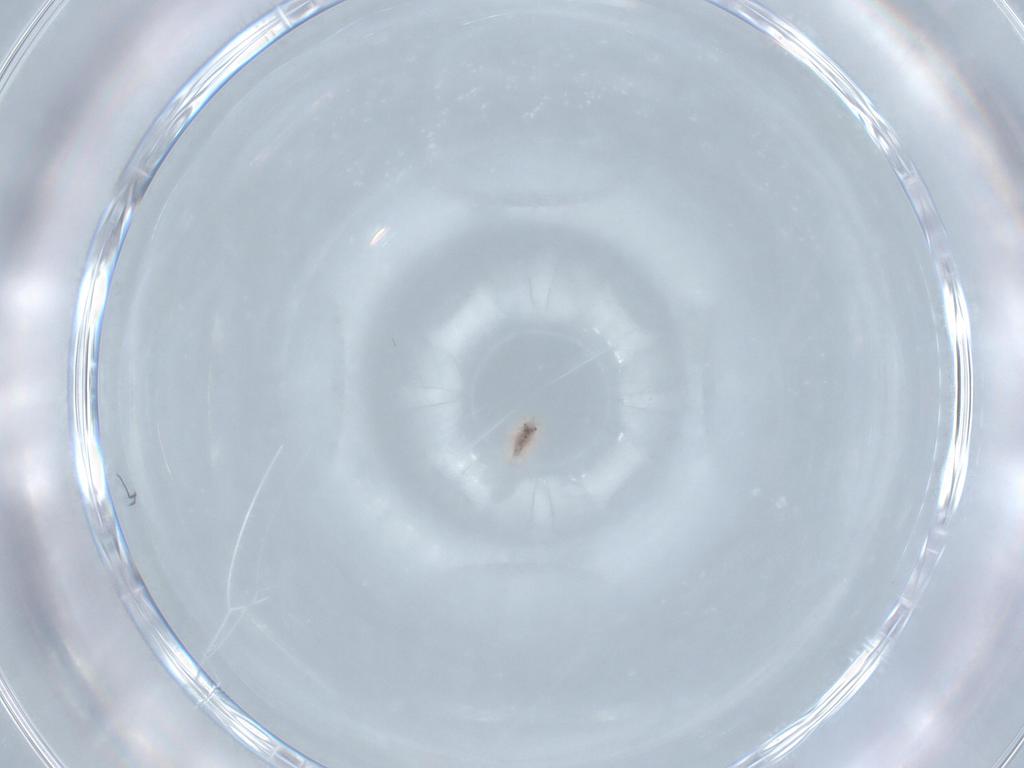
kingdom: Animalia
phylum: Arthropoda
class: Insecta
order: Neuroptera
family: Coniopterygidae
